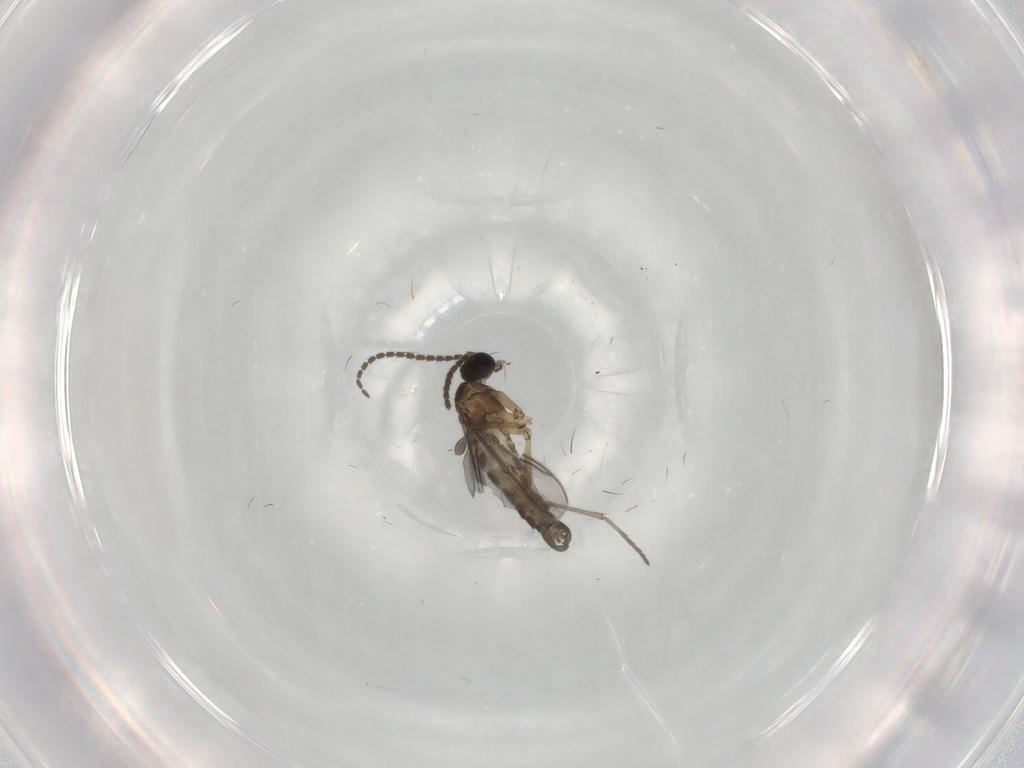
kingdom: Animalia
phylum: Arthropoda
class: Insecta
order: Diptera
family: Sciaridae
